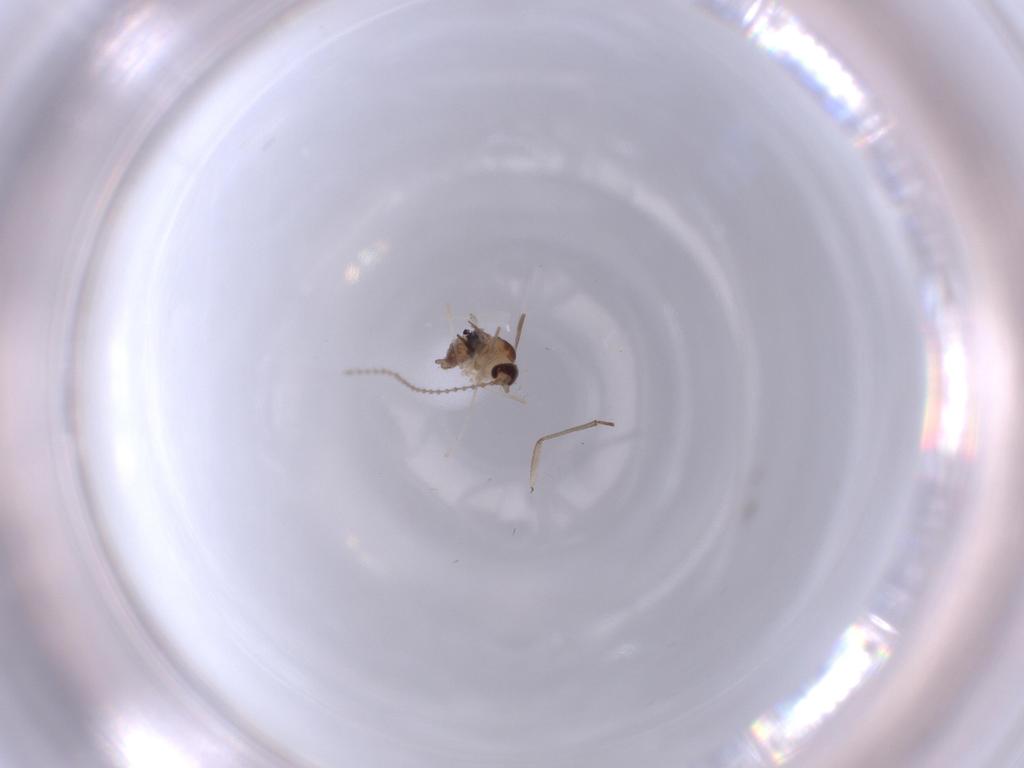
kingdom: Animalia
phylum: Arthropoda
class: Insecta
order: Diptera
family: Cecidomyiidae
